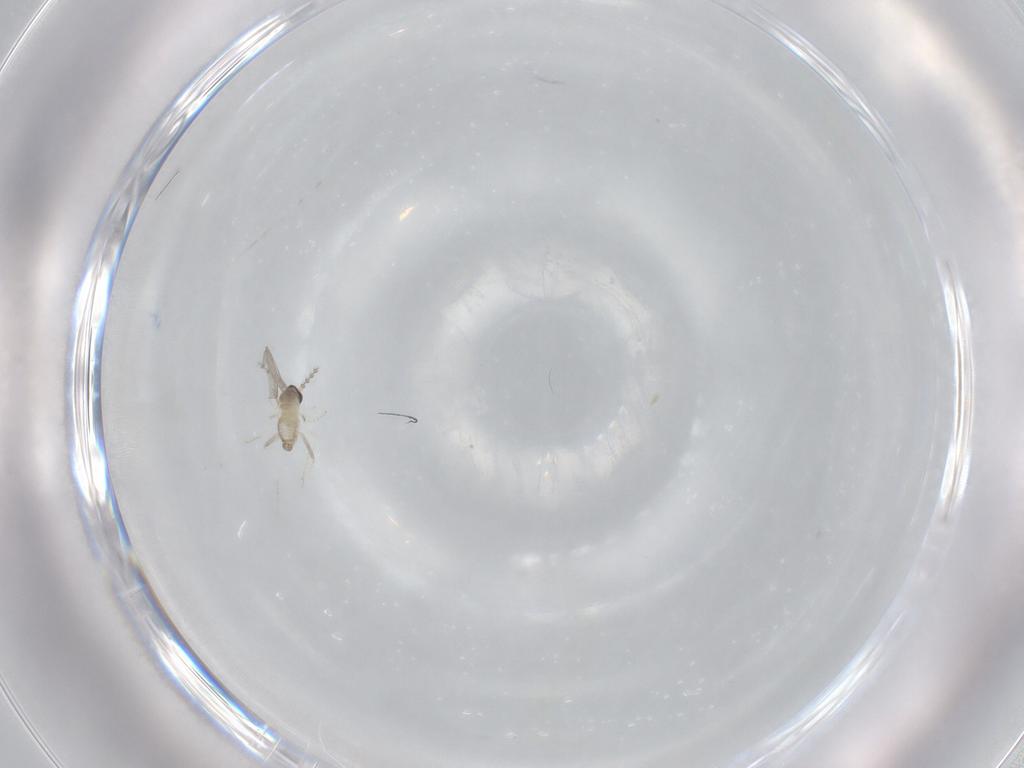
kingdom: Animalia
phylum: Arthropoda
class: Insecta
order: Diptera
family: Cecidomyiidae
